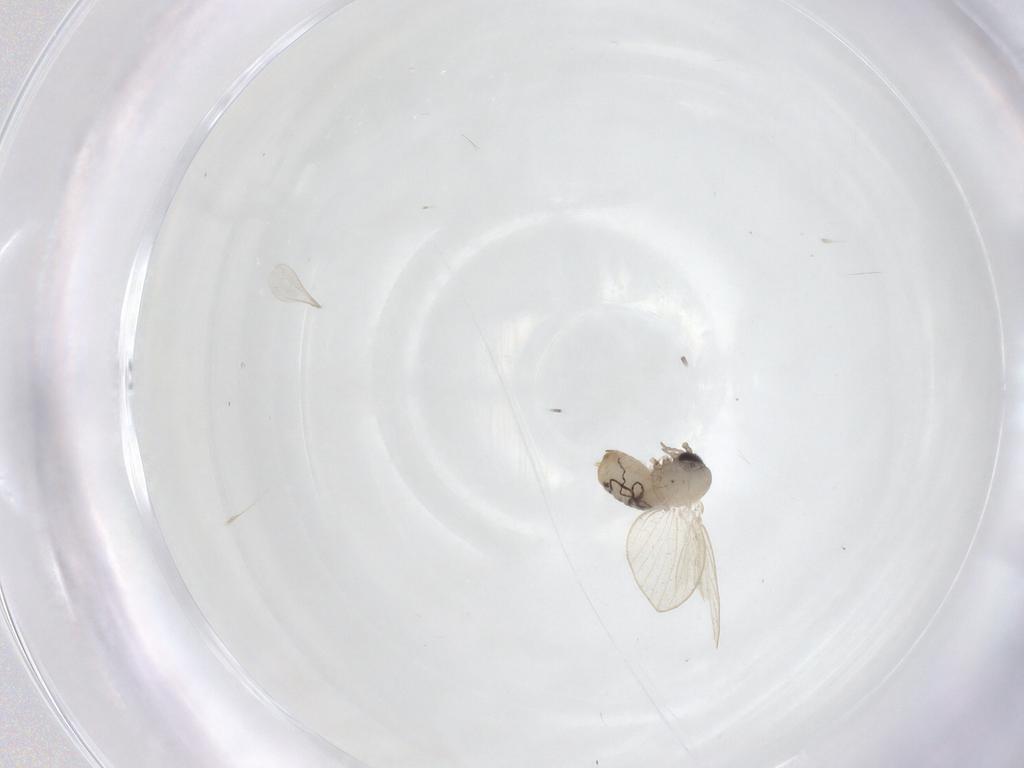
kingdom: Animalia
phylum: Arthropoda
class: Insecta
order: Diptera
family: Psychodidae
